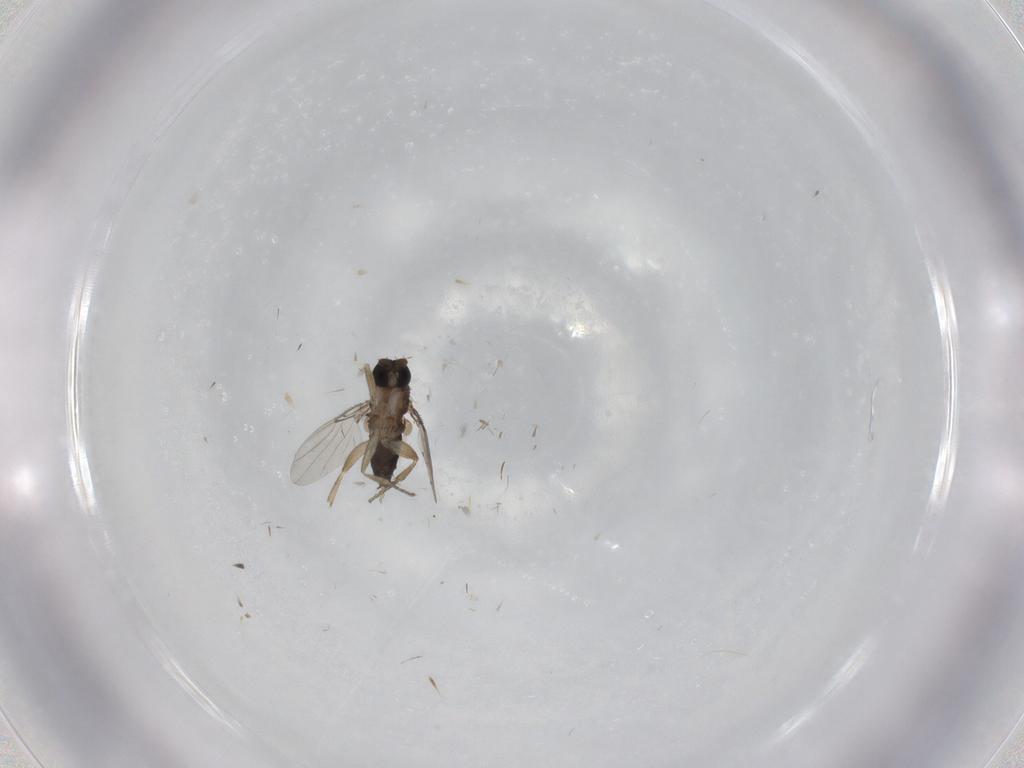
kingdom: Animalia
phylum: Arthropoda
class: Insecta
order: Diptera
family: Phoridae
